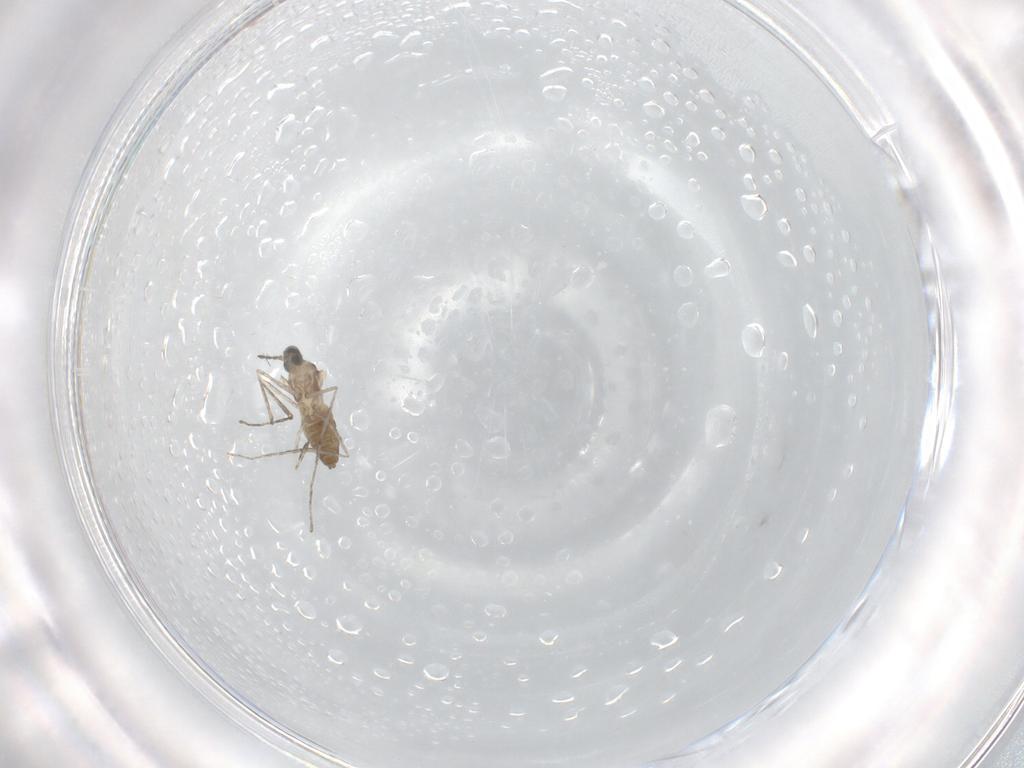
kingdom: Animalia
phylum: Arthropoda
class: Insecta
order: Diptera
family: Cecidomyiidae
